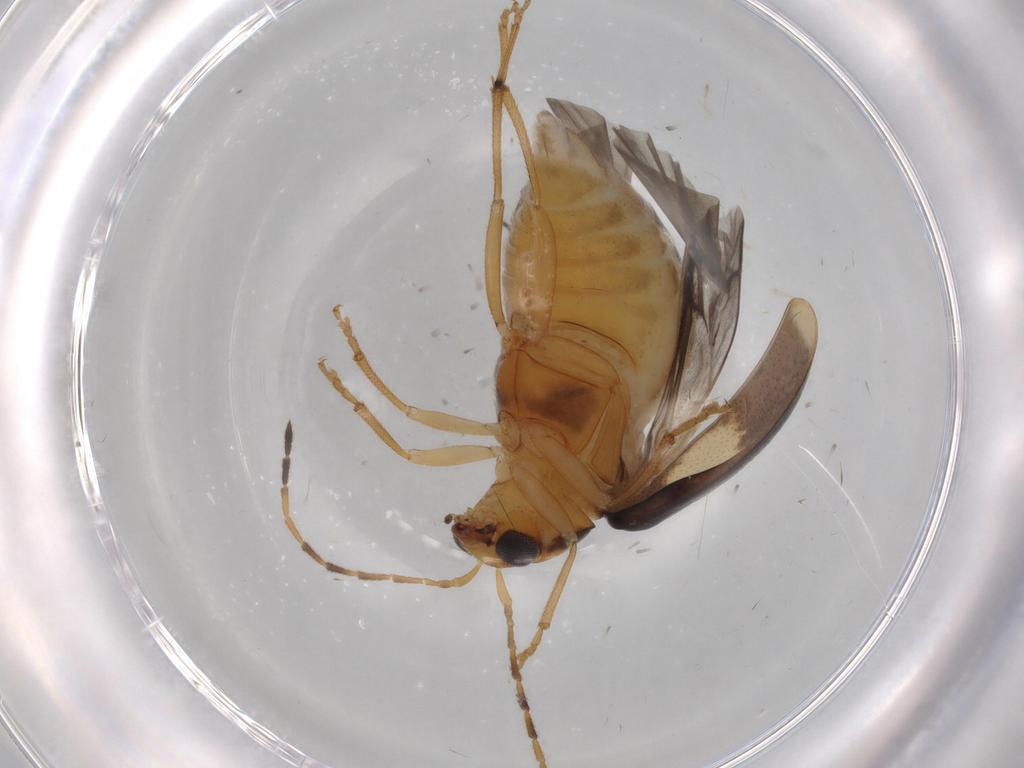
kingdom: Animalia
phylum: Arthropoda
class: Insecta
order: Coleoptera
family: Chrysomelidae
